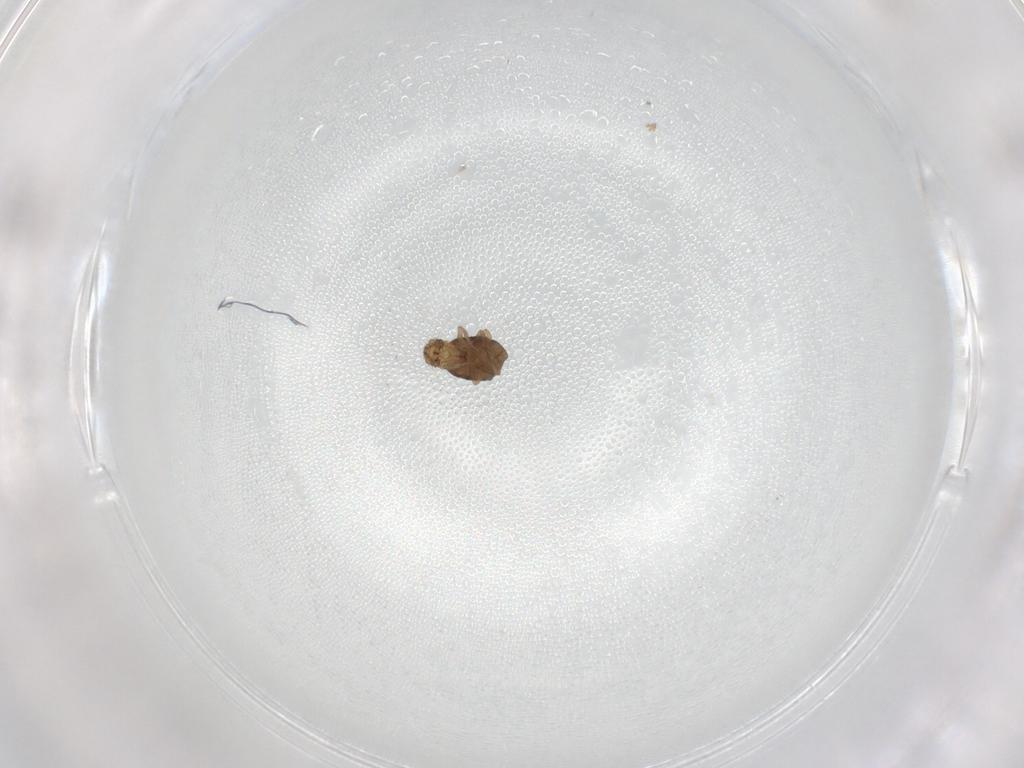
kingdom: Animalia
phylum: Arthropoda
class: Insecta
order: Diptera
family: Phoridae
